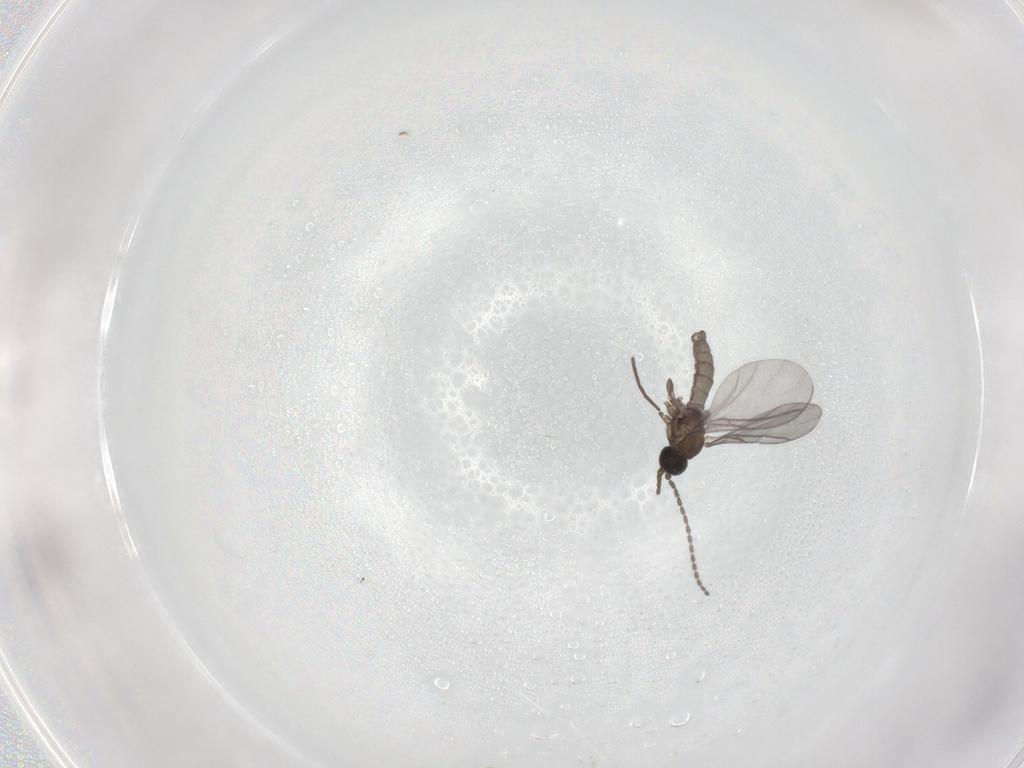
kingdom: Animalia
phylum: Arthropoda
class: Insecta
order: Diptera
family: Sciaridae
